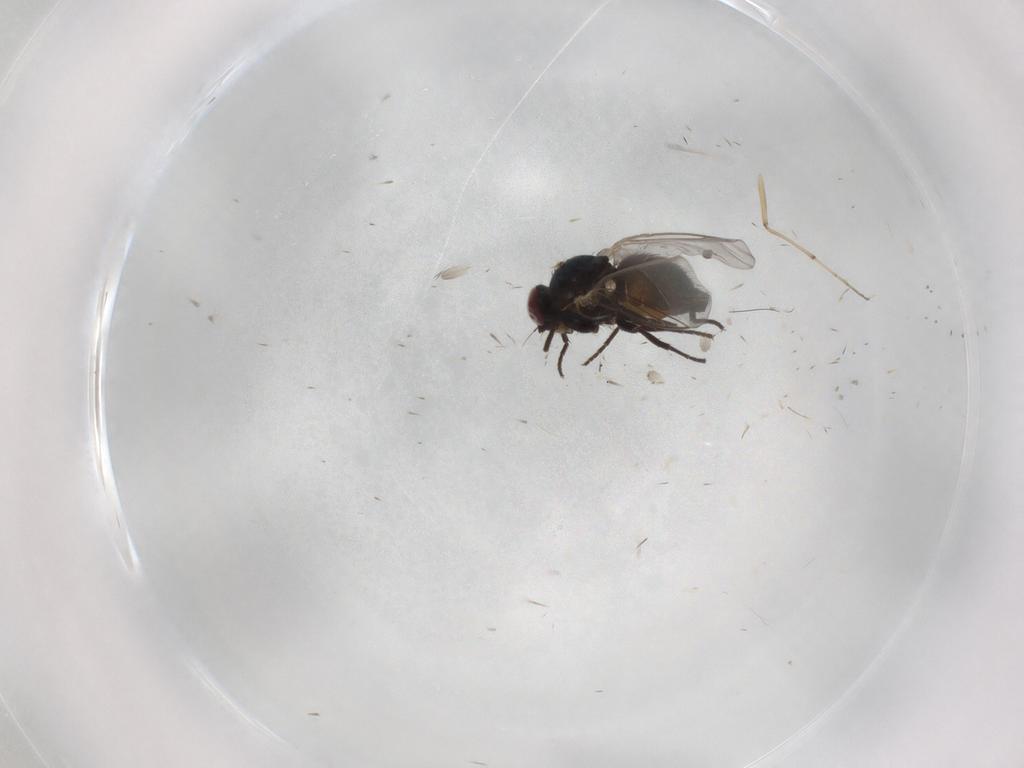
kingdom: Animalia
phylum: Arthropoda
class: Insecta
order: Diptera
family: Agromyzidae
